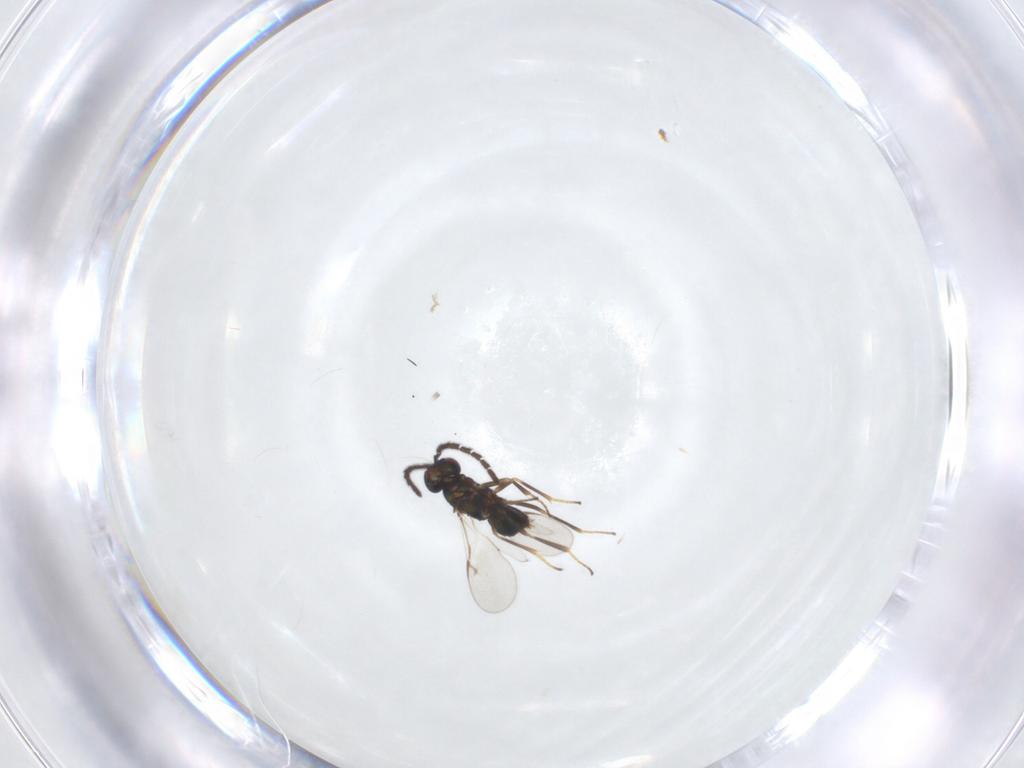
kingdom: Animalia
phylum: Arthropoda
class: Insecta
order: Hymenoptera
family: Encyrtidae
